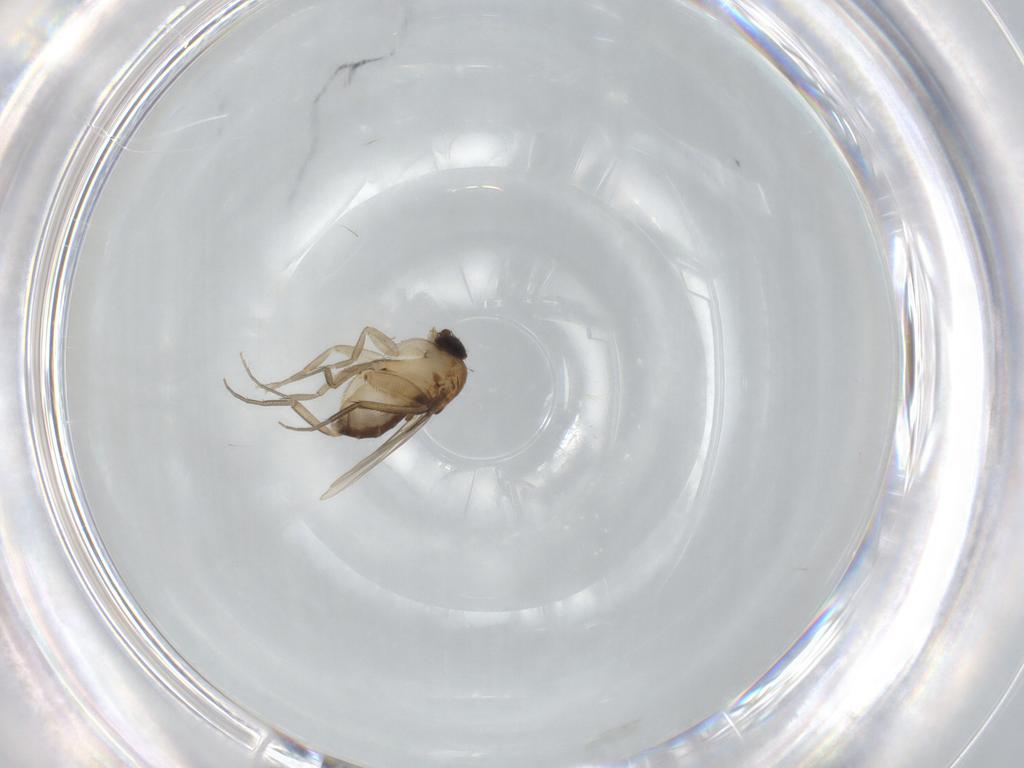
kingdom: Animalia
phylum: Arthropoda
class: Insecta
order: Diptera
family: Phoridae
